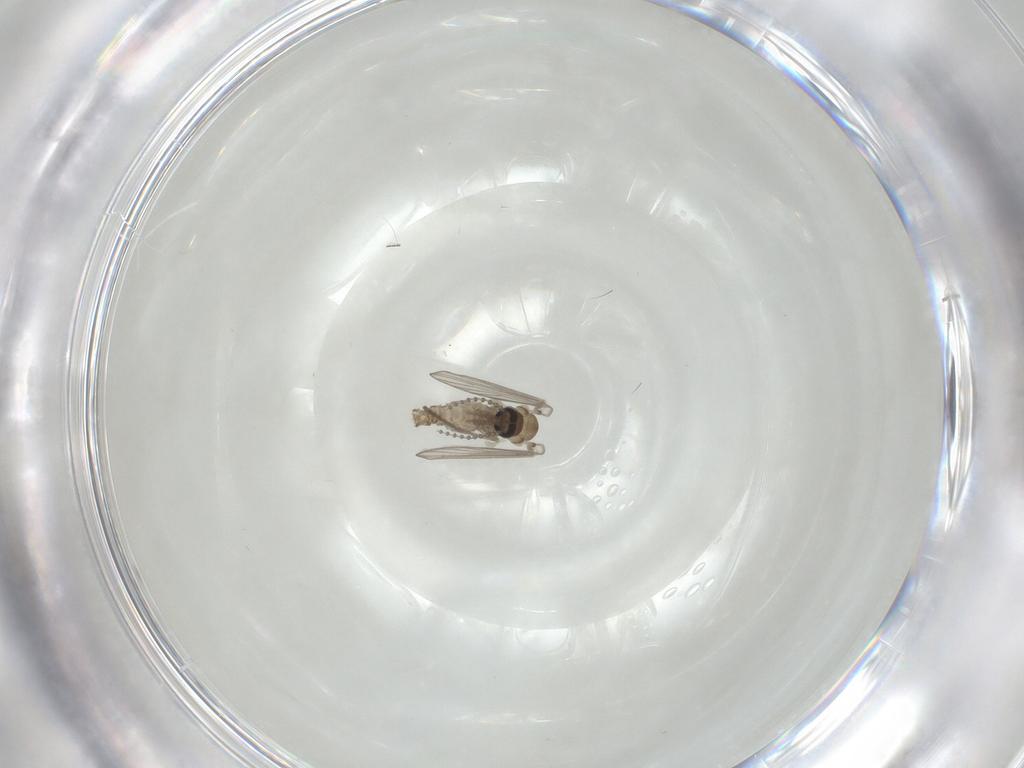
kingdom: Animalia
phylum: Arthropoda
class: Insecta
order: Diptera
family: Psychodidae
